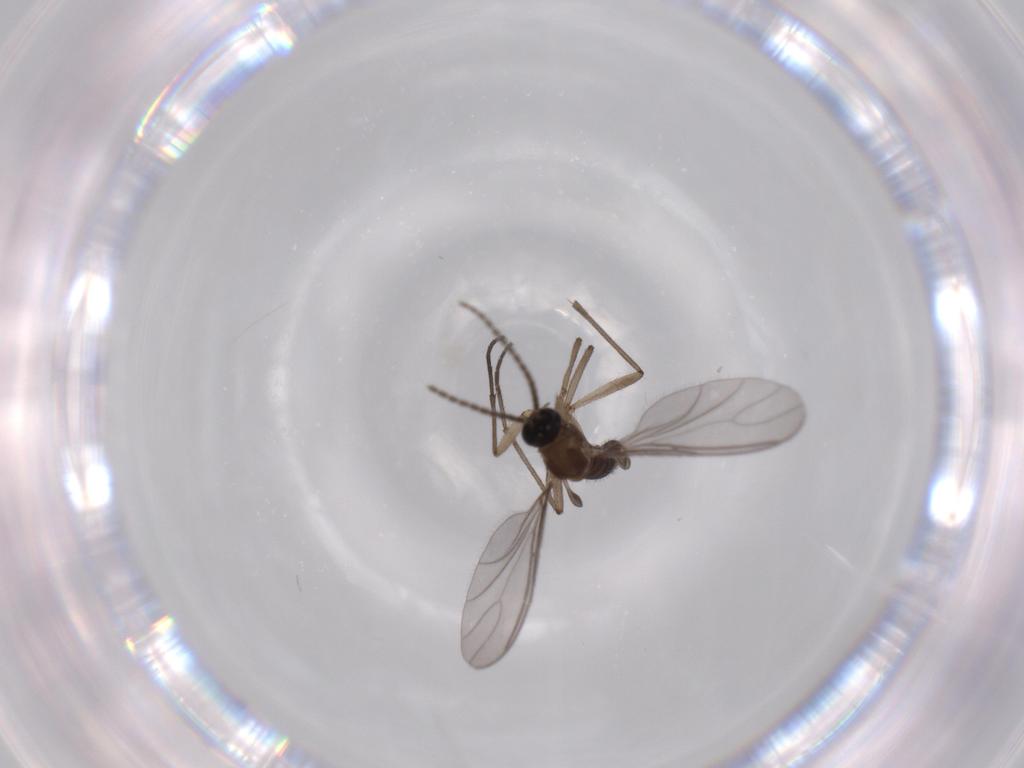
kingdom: Animalia
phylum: Arthropoda
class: Insecta
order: Diptera
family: Sciaridae
